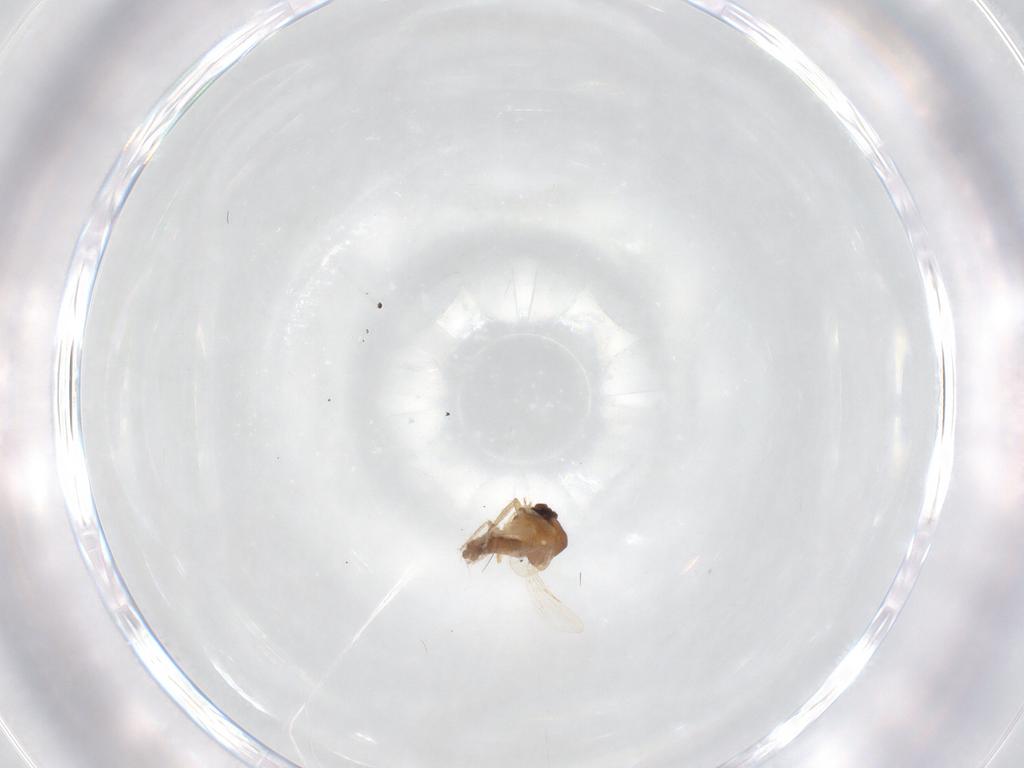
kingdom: Animalia
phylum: Arthropoda
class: Insecta
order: Diptera
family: Ceratopogonidae
